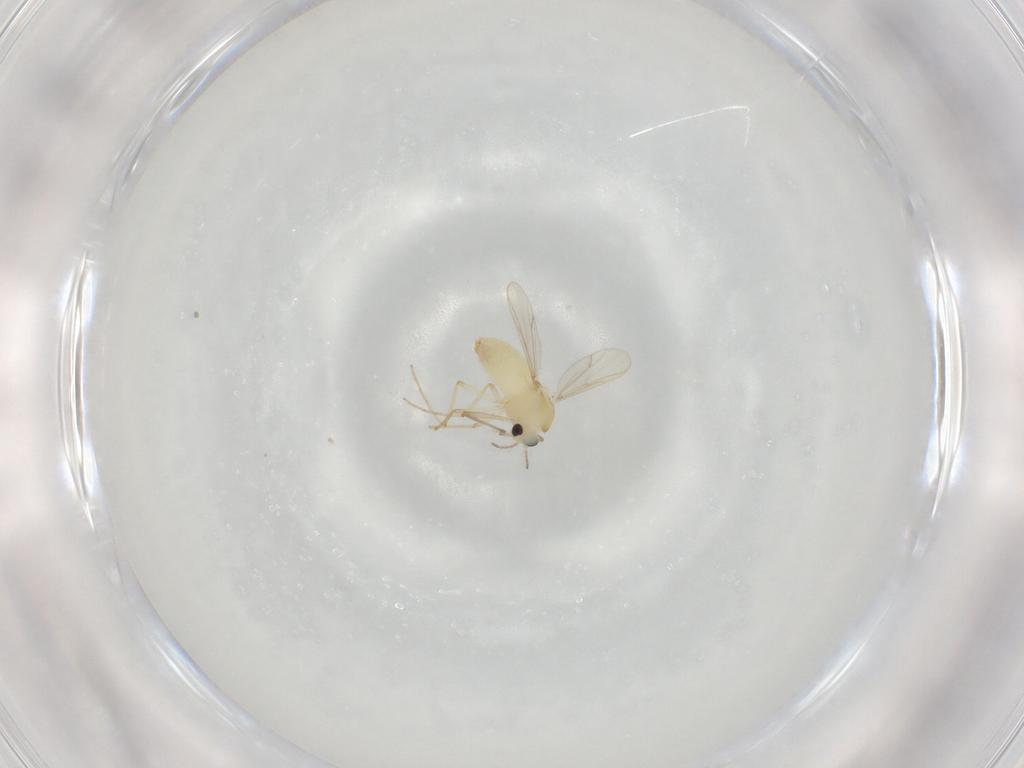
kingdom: Animalia
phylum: Arthropoda
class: Insecta
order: Diptera
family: Chironomidae
